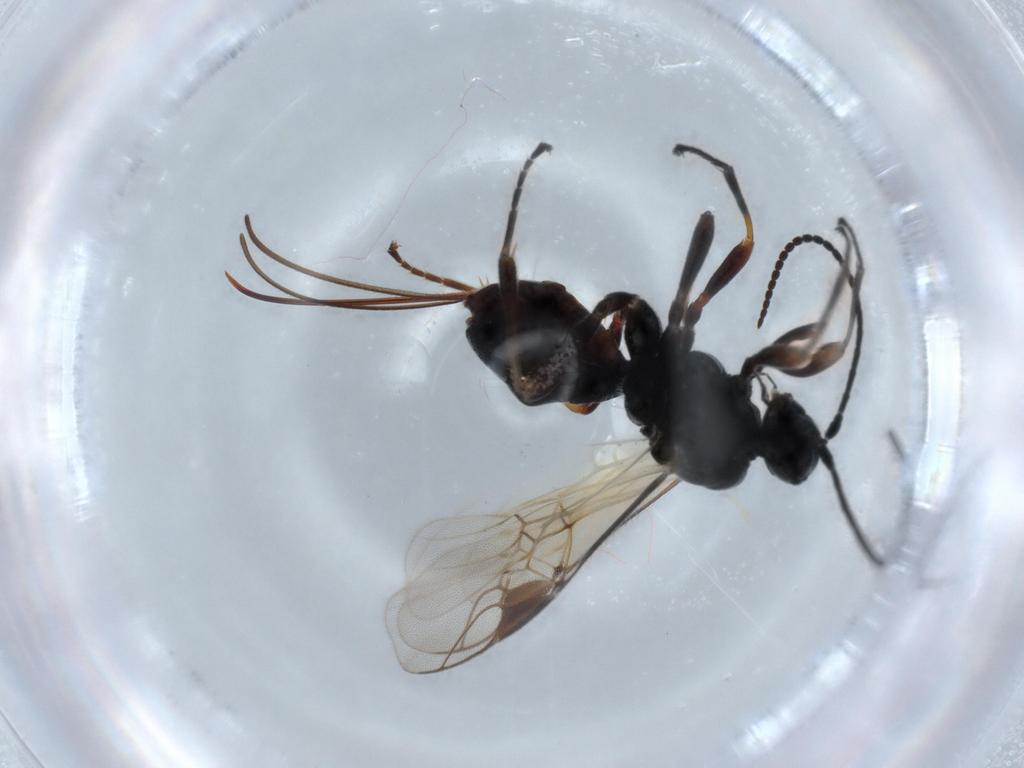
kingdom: Animalia
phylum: Arthropoda
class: Insecta
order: Hymenoptera
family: Braconidae
